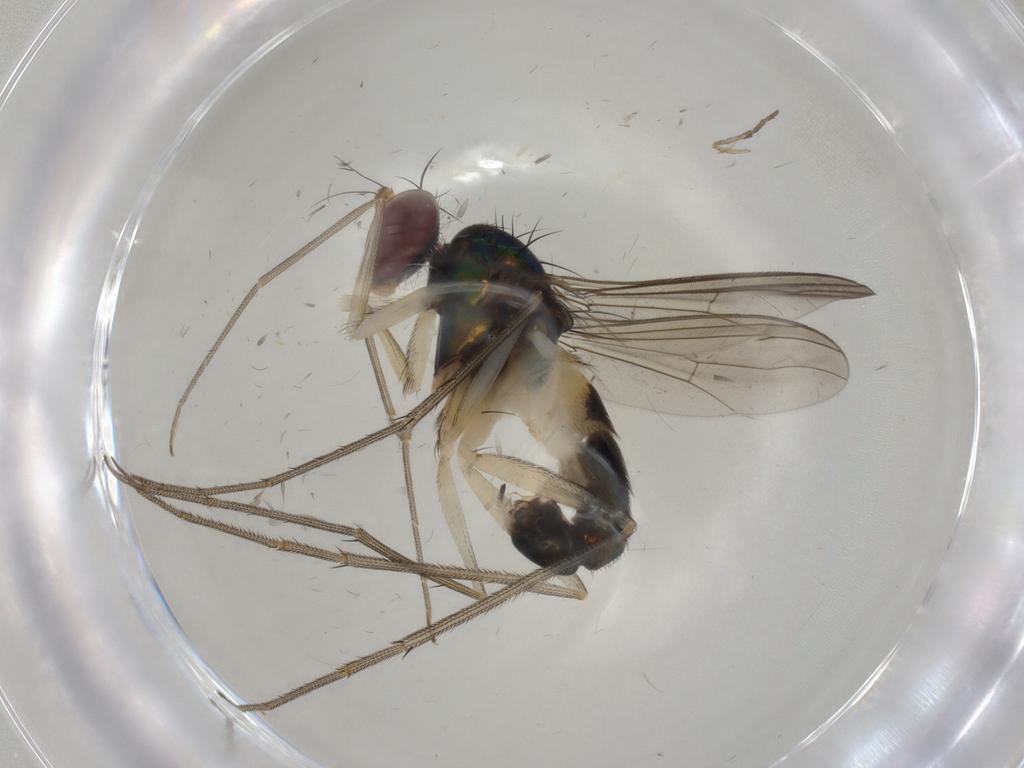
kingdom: Animalia
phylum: Arthropoda
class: Insecta
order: Diptera
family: Dolichopodidae
